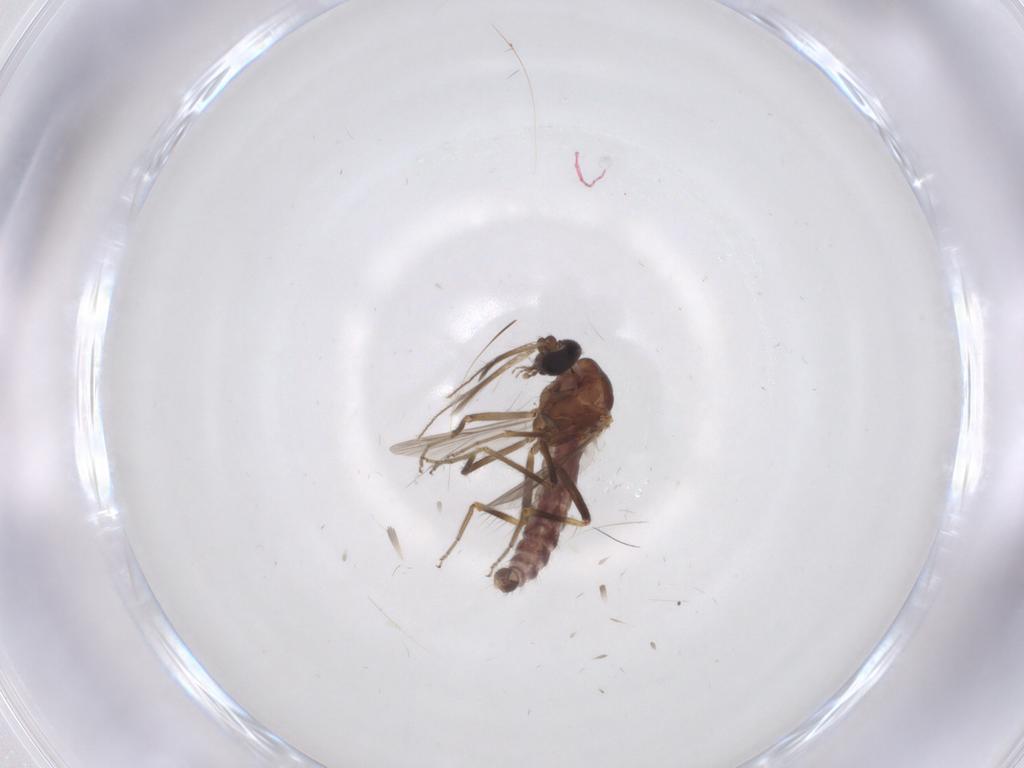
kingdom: Animalia
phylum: Arthropoda
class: Insecta
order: Diptera
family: Ceratopogonidae
